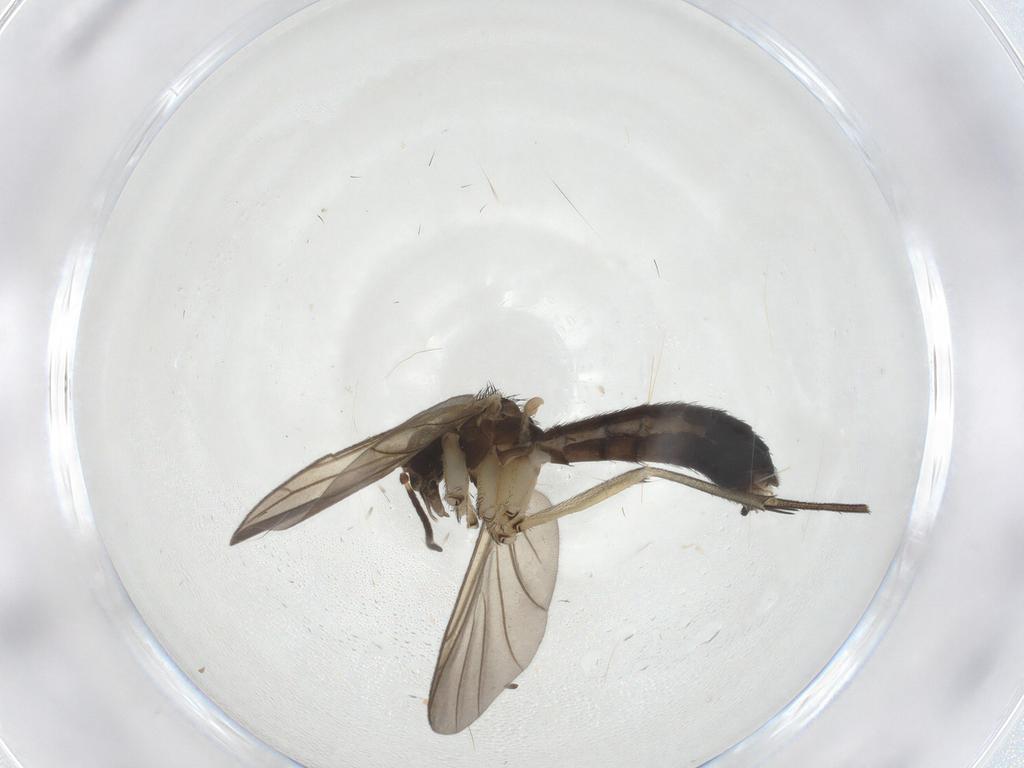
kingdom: Animalia
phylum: Arthropoda
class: Insecta
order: Diptera
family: Keroplatidae
